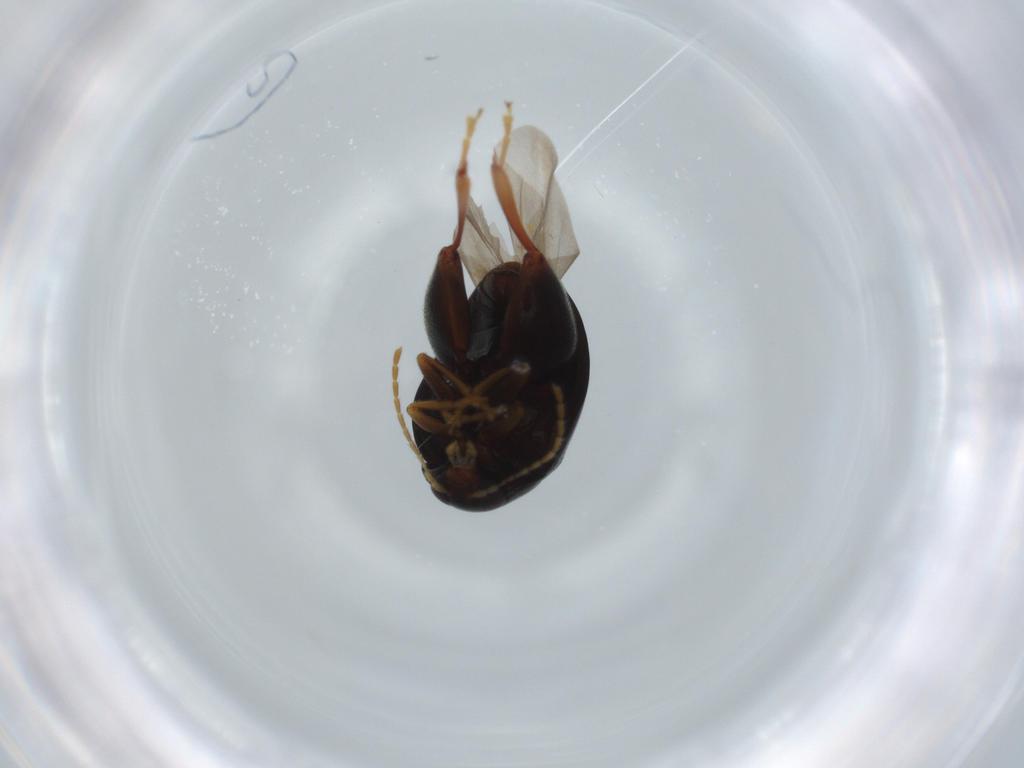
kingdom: Animalia
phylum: Arthropoda
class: Insecta
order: Coleoptera
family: Chrysomelidae
